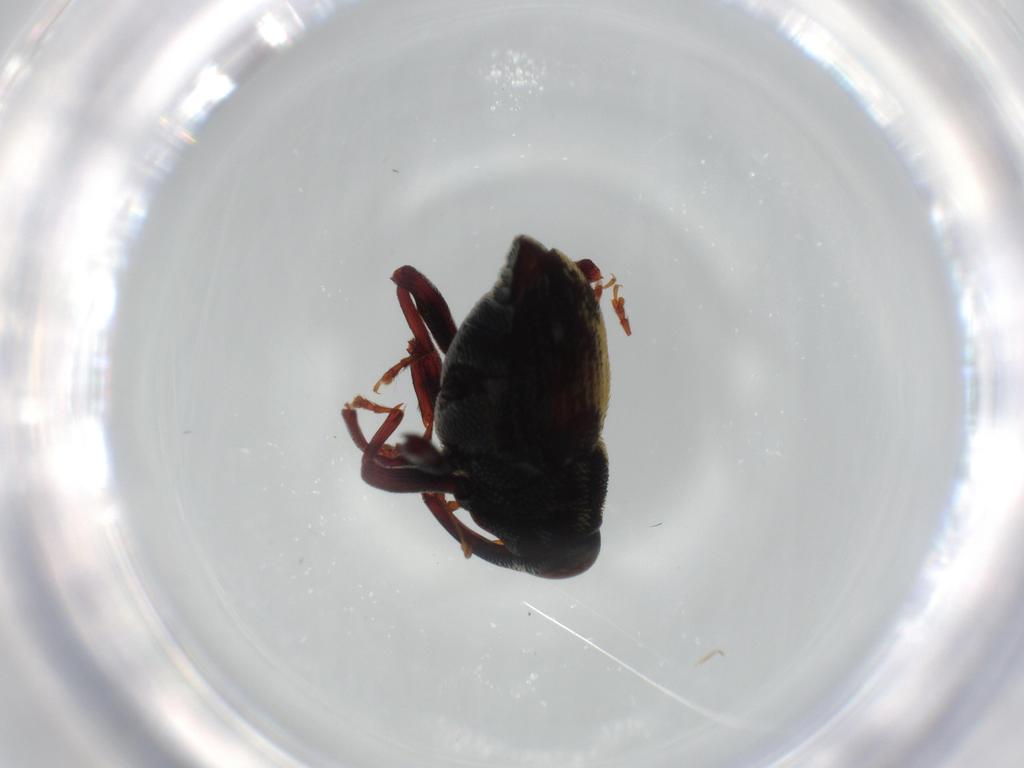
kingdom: Animalia
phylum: Arthropoda
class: Insecta
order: Coleoptera
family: Curculionidae
